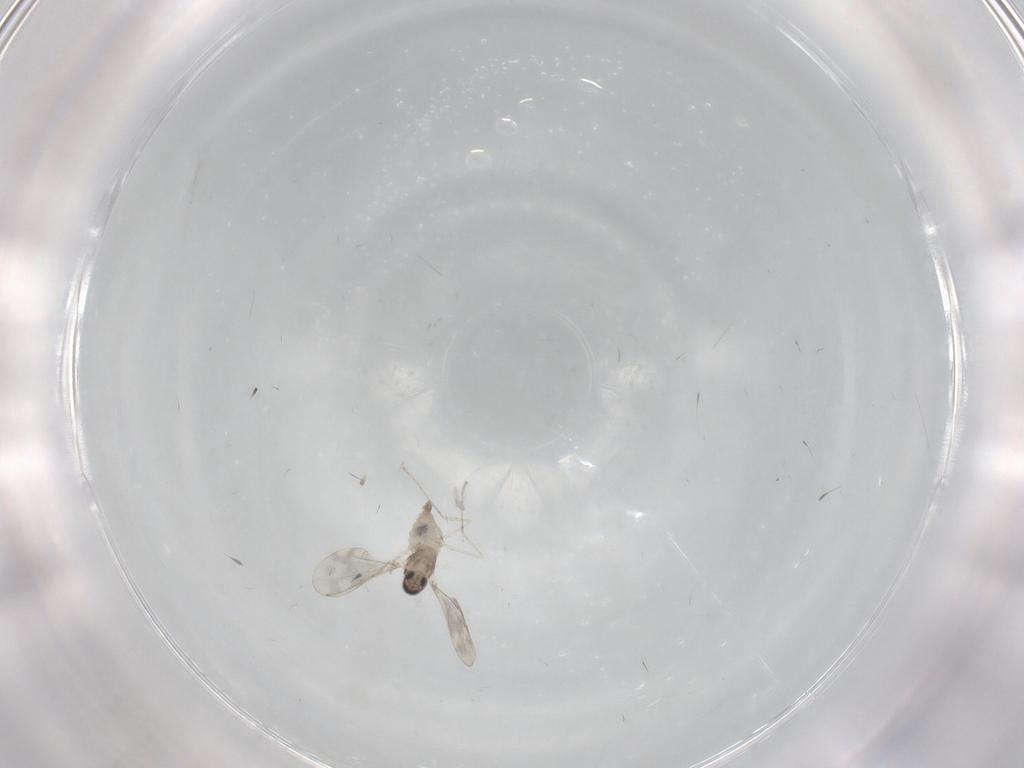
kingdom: Animalia
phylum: Arthropoda
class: Insecta
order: Diptera
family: Cecidomyiidae
